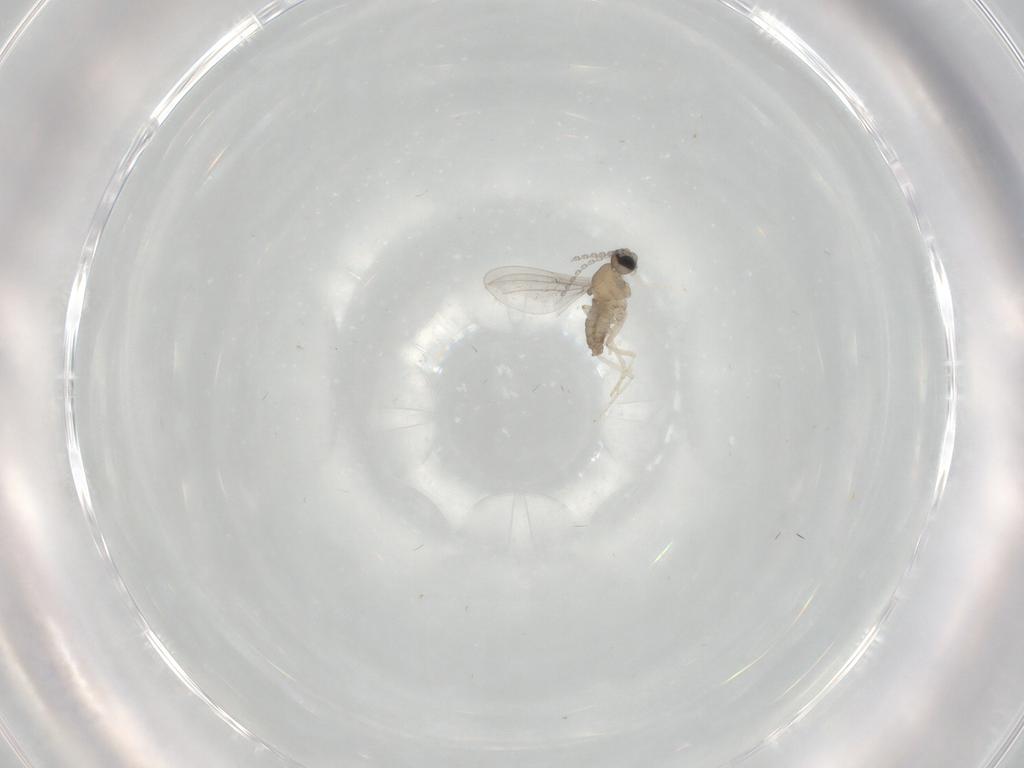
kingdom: Animalia
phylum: Arthropoda
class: Insecta
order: Diptera
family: Cecidomyiidae
